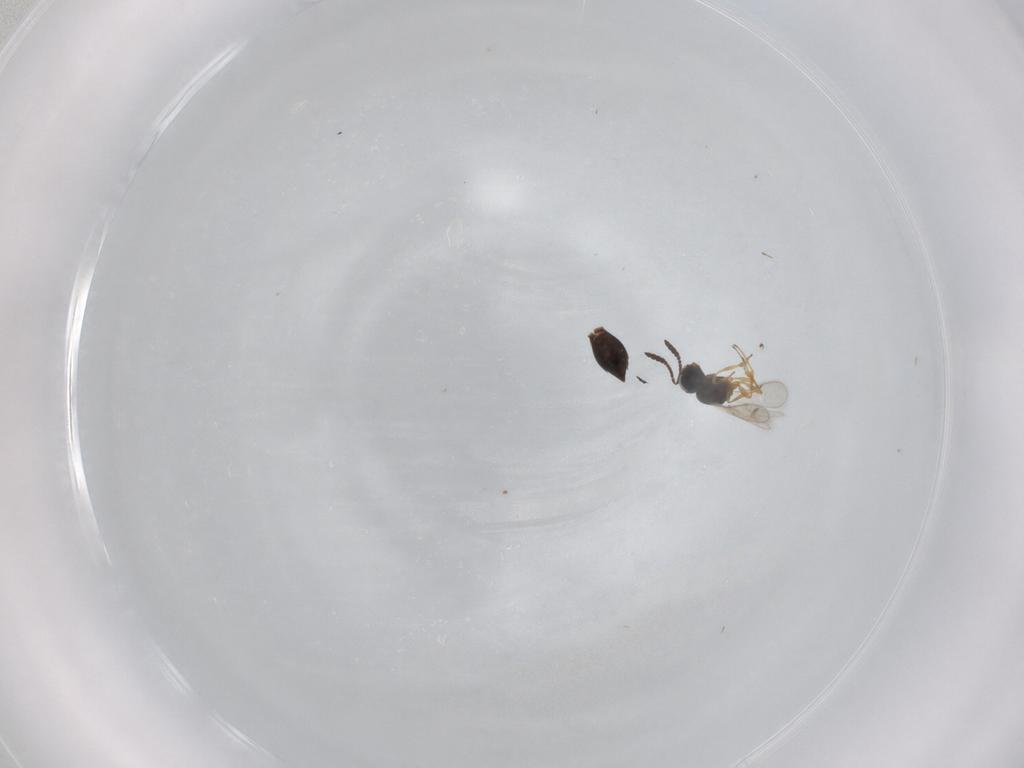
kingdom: Animalia
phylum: Arthropoda
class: Insecta
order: Hymenoptera
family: Scelionidae
